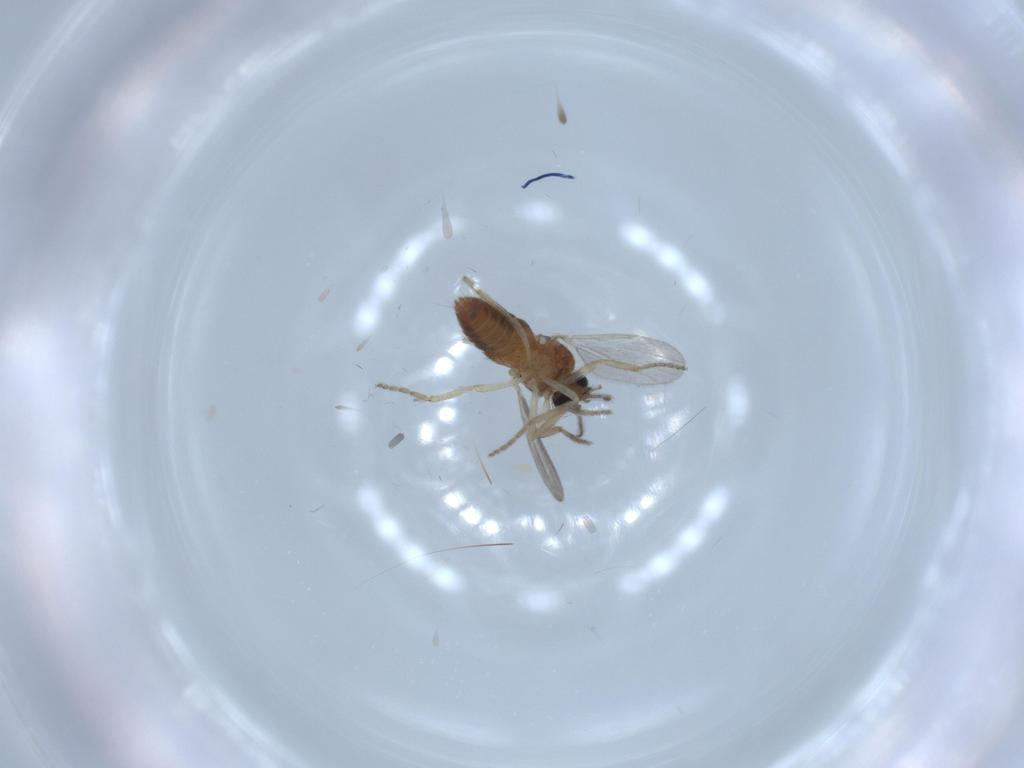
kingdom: Animalia
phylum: Arthropoda
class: Insecta
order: Diptera
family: Ceratopogonidae
